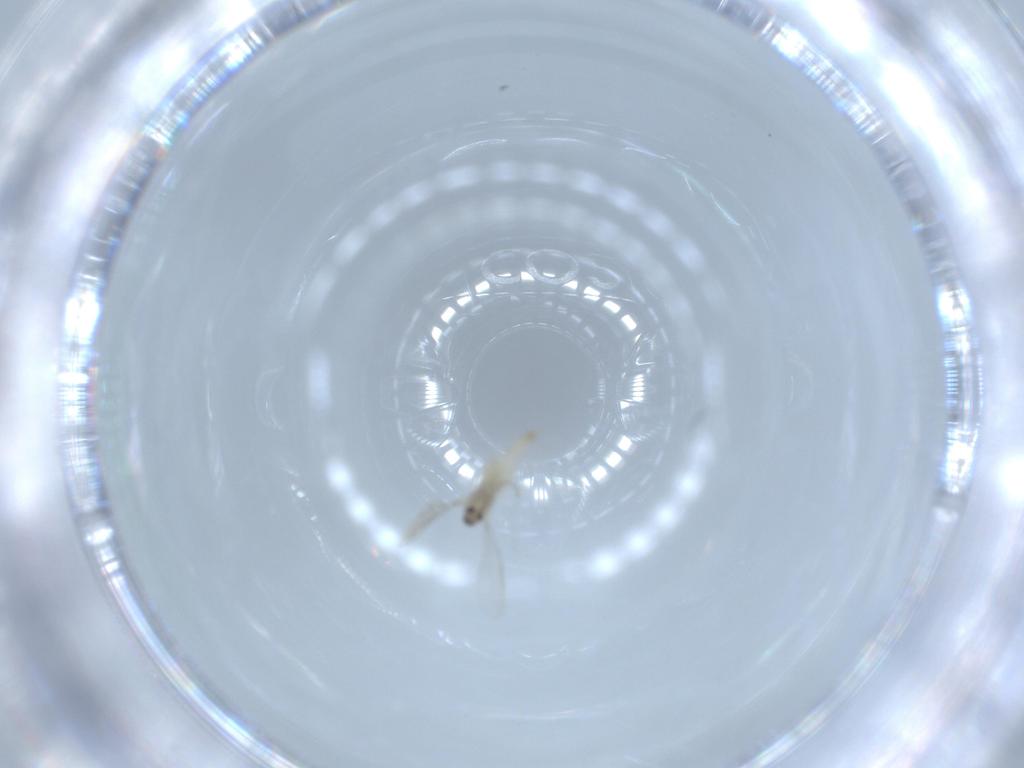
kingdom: Animalia
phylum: Arthropoda
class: Insecta
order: Diptera
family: Cecidomyiidae
